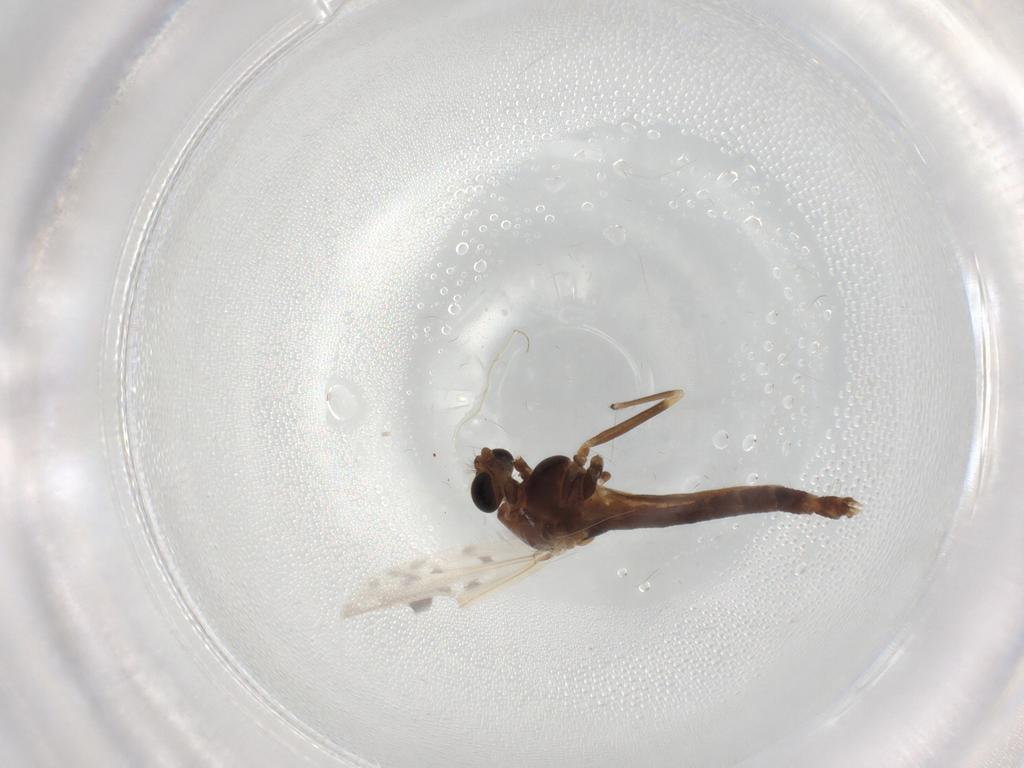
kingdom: Animalia
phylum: Arthropoda
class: Insecta
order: Diptera
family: Chironomidae
